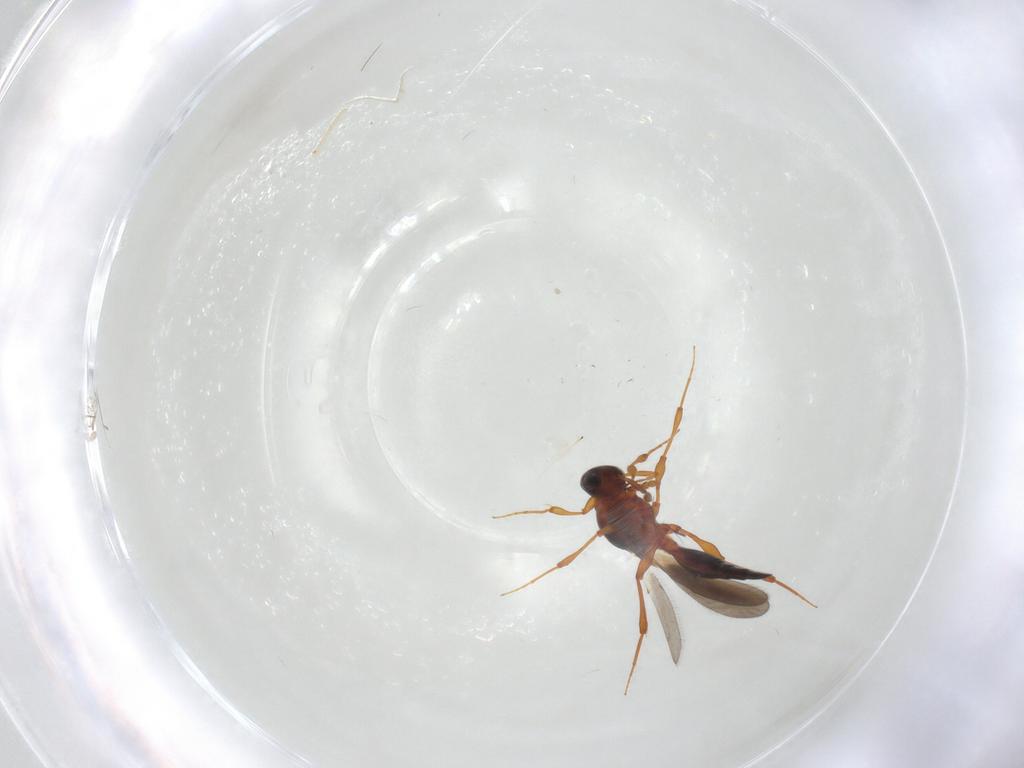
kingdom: Animalia
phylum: Arthropoda
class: Insecta
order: Hymenoptera
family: Platygastridae
